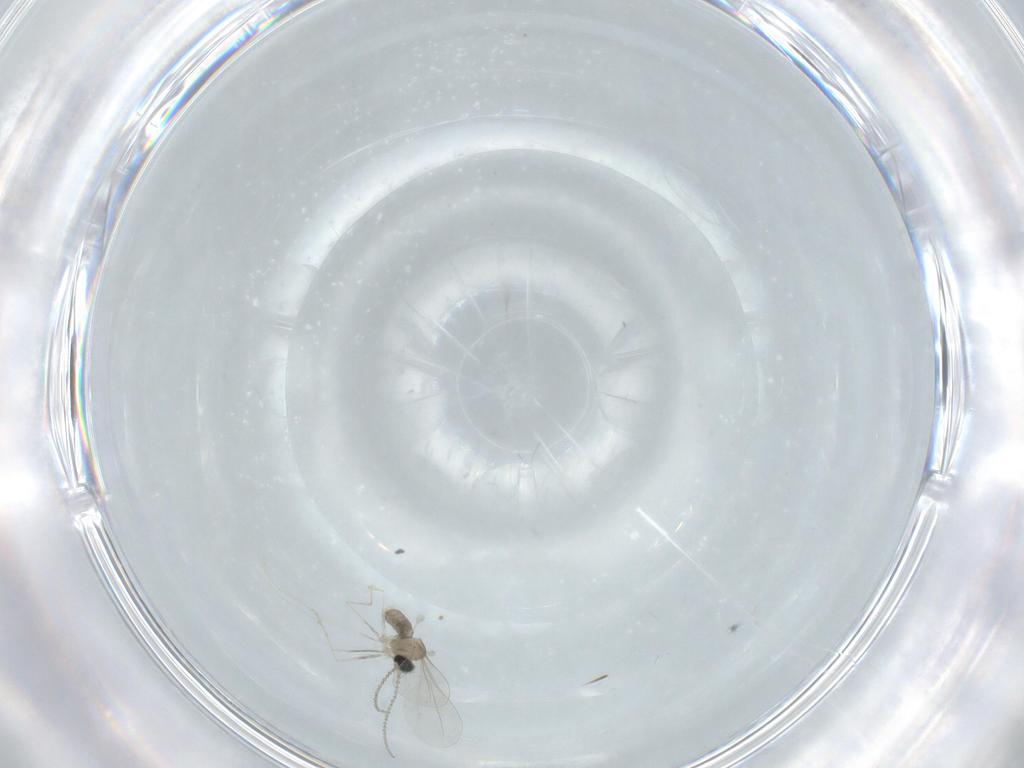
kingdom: Animalia
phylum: Arthropoda
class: Insecta
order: Diptera
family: Cecidomyiidae
